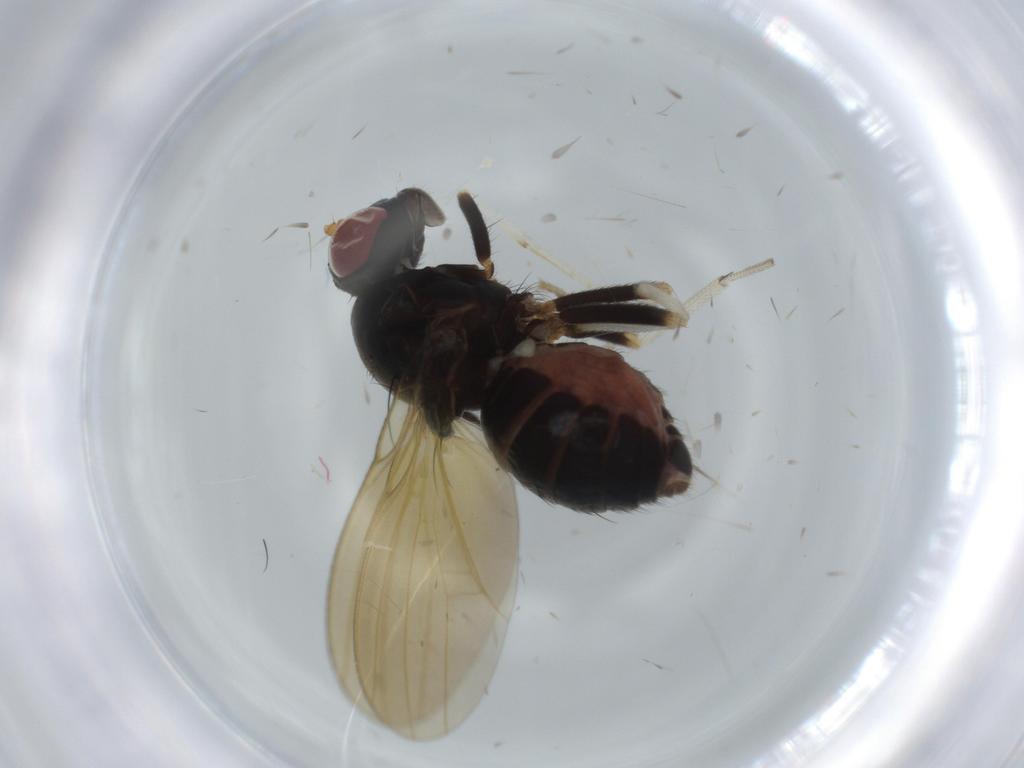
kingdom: Animalia
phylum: Arthropoda
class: Insecta
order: Diptera
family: Milichiidae
